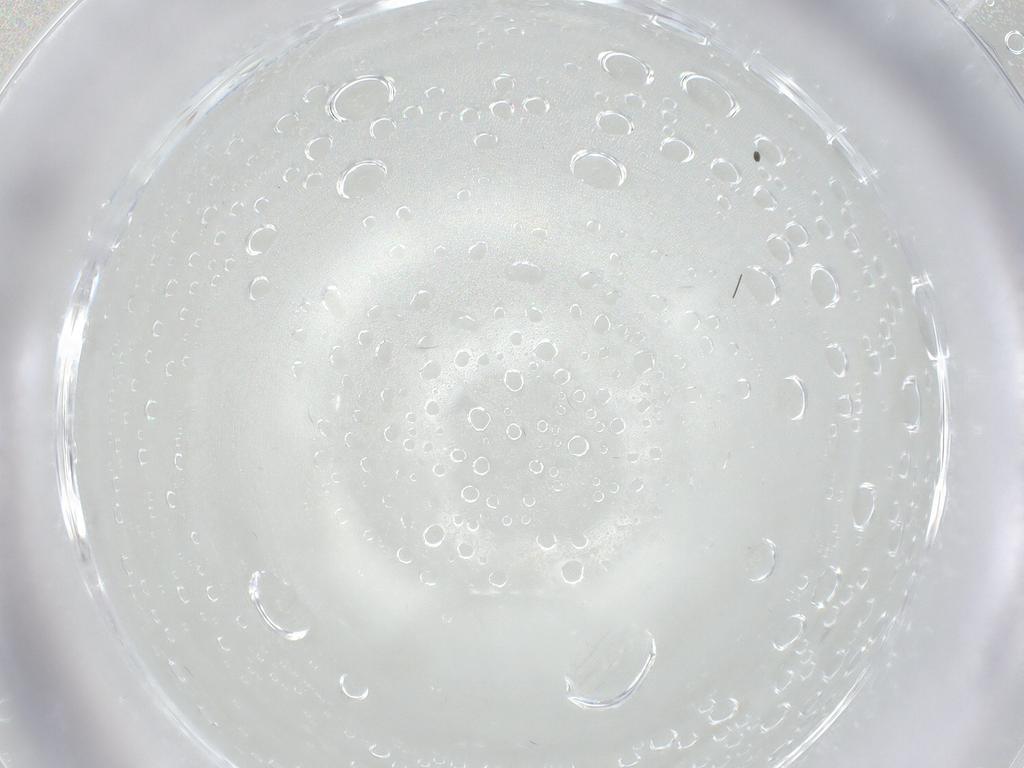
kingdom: Animalia
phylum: Arthropoda
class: Insecta
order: Diptera
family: Cecidomyiidae
